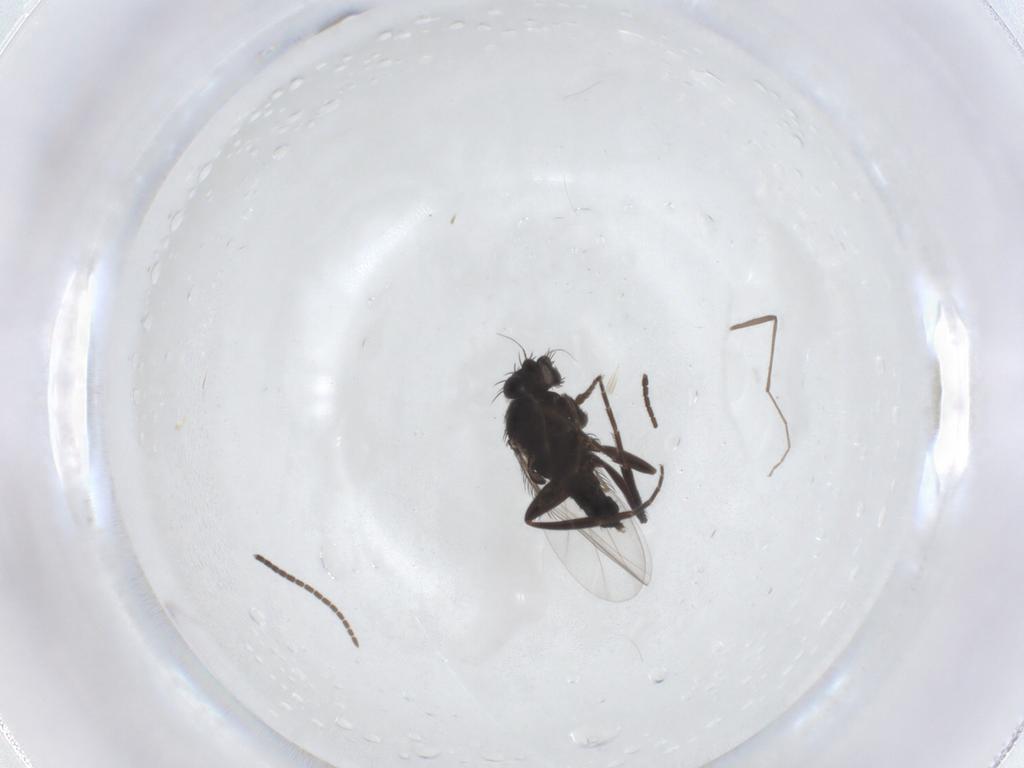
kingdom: Animalia
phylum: Arthropoda
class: Insecta
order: Diptera
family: Phoridae
